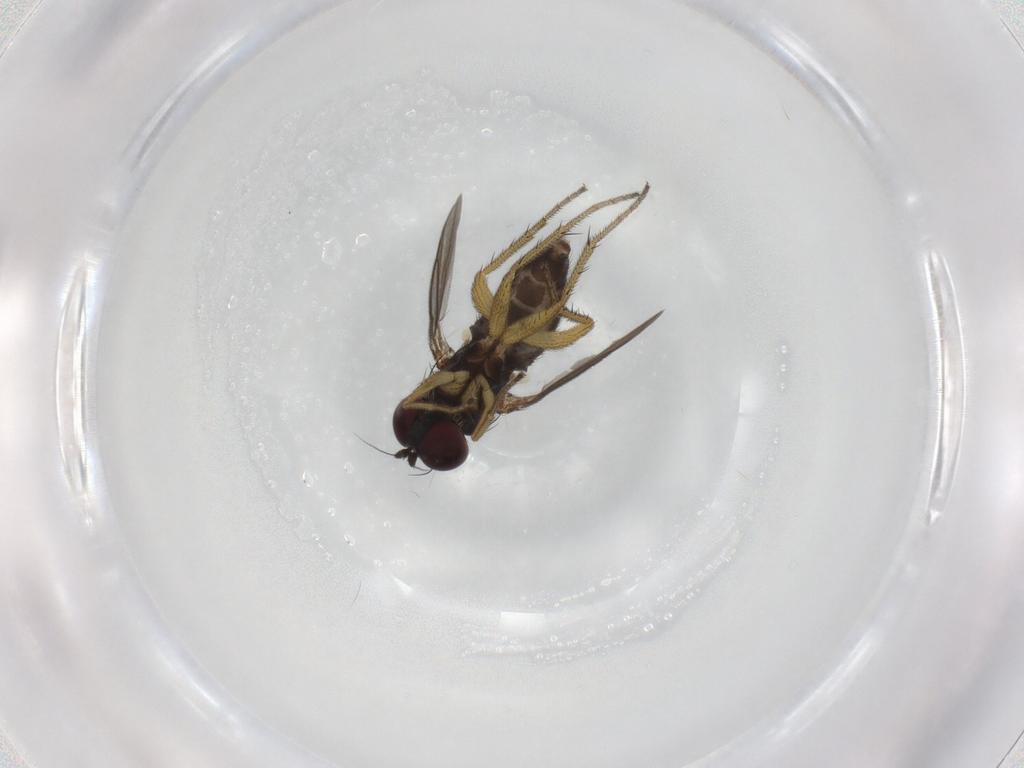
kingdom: Animalia
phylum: Arthropoda
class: Insecta
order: Diptera
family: Dolichopodidae
